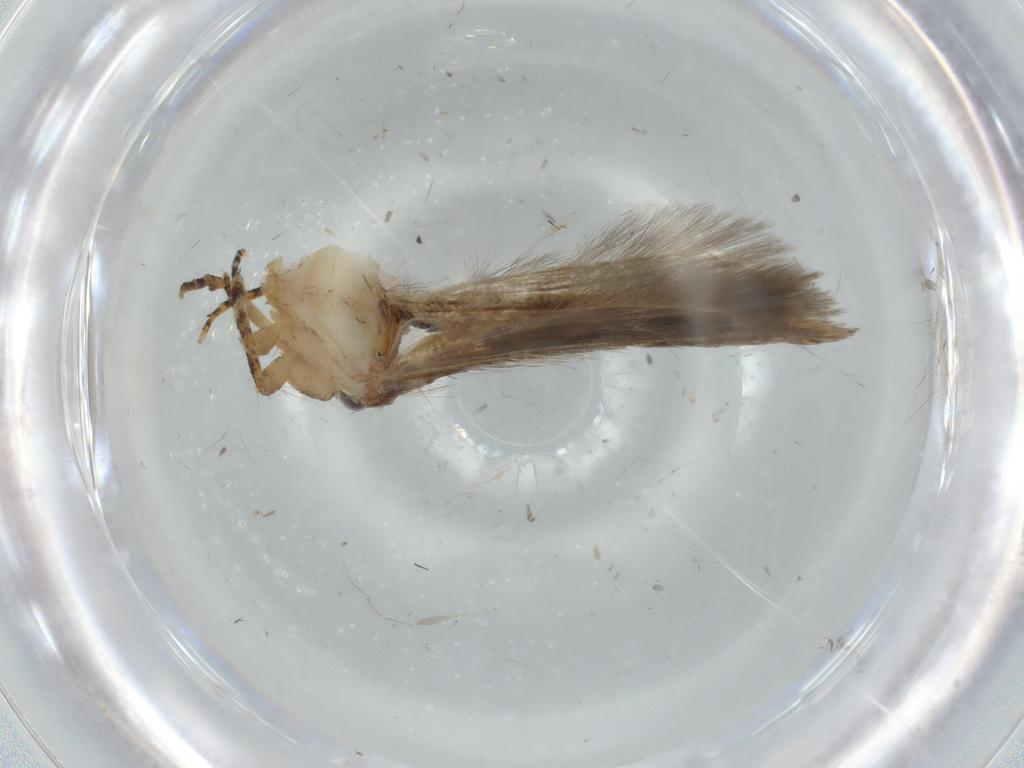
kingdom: Animalia
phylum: Arthropoda
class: Insecta
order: Lepidoptera
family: Gelechiidae
